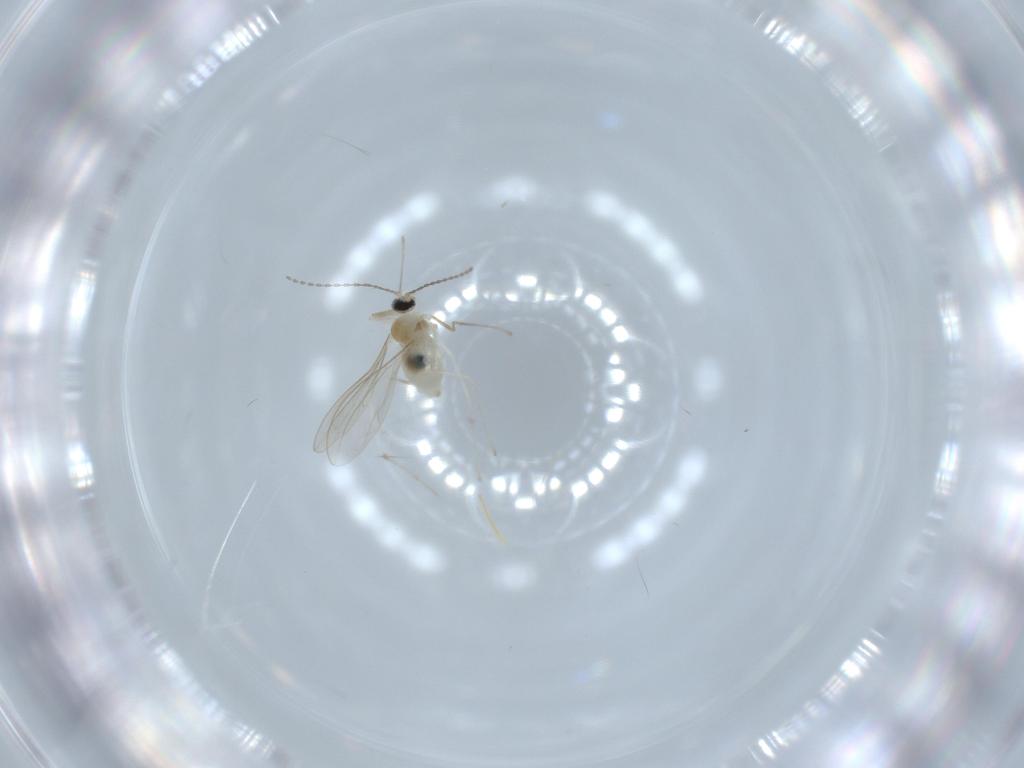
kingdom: Animalia
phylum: Arthropoda
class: Insecta
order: Diptera
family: Cecidomyiidae
